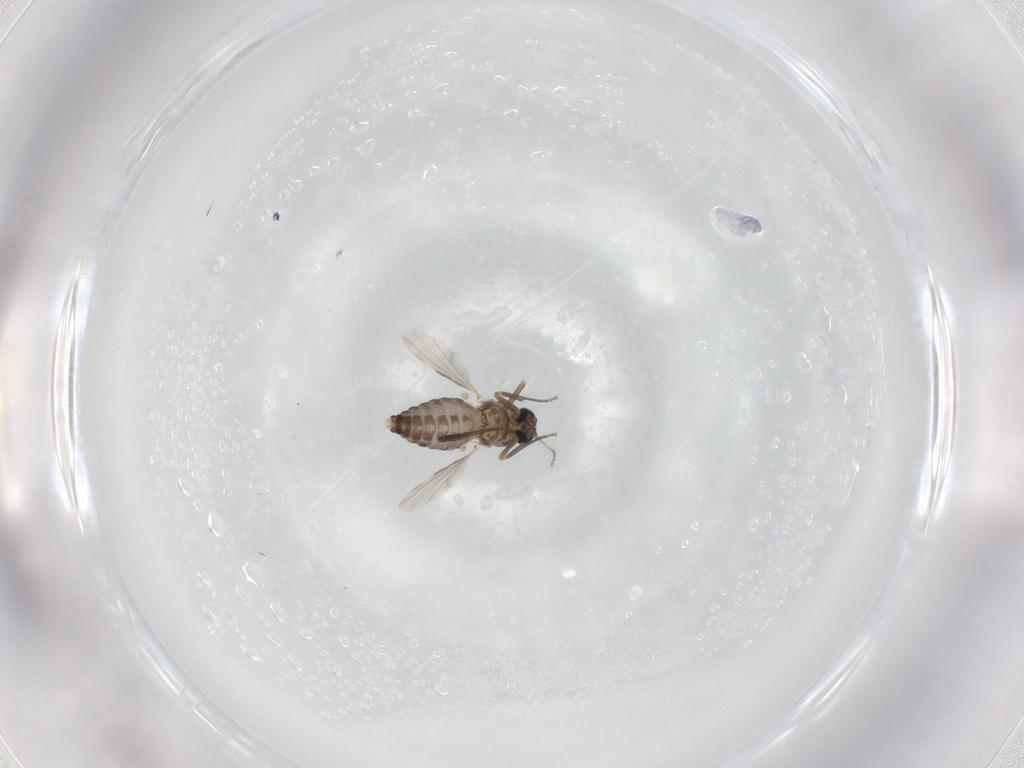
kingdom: Animalia
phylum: Arthropoda
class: Insecta
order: Diptera
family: Ceratopogonidae
